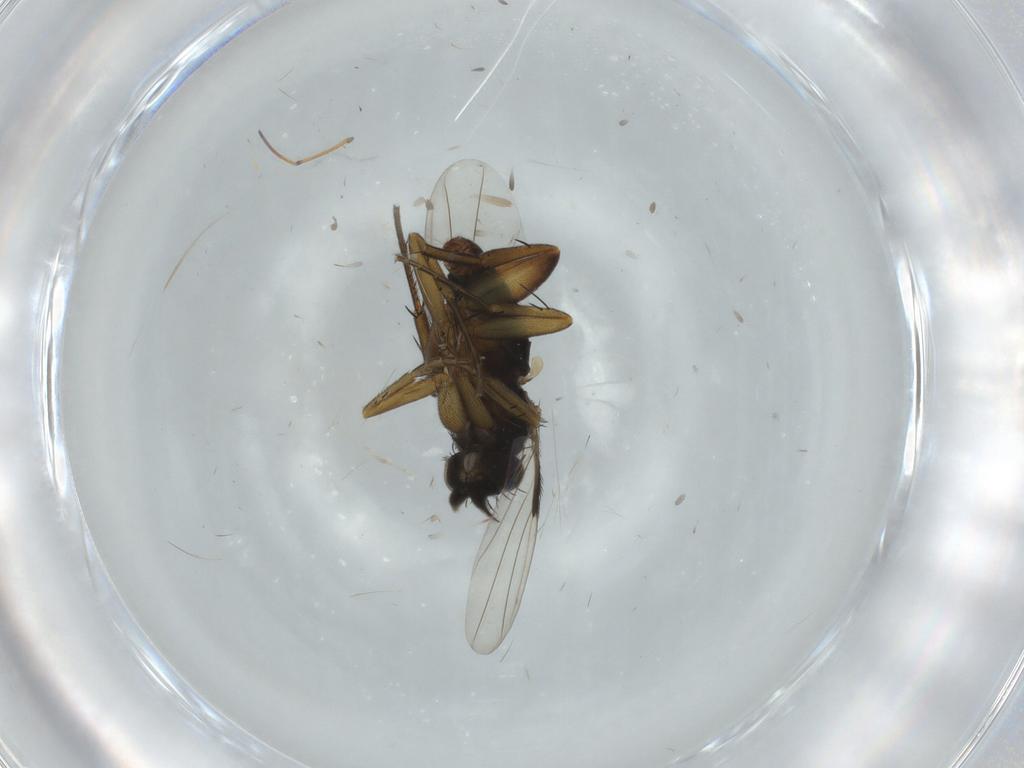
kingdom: Animalia
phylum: Arthropoda
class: Insecta
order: Diptera
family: Phoridae
